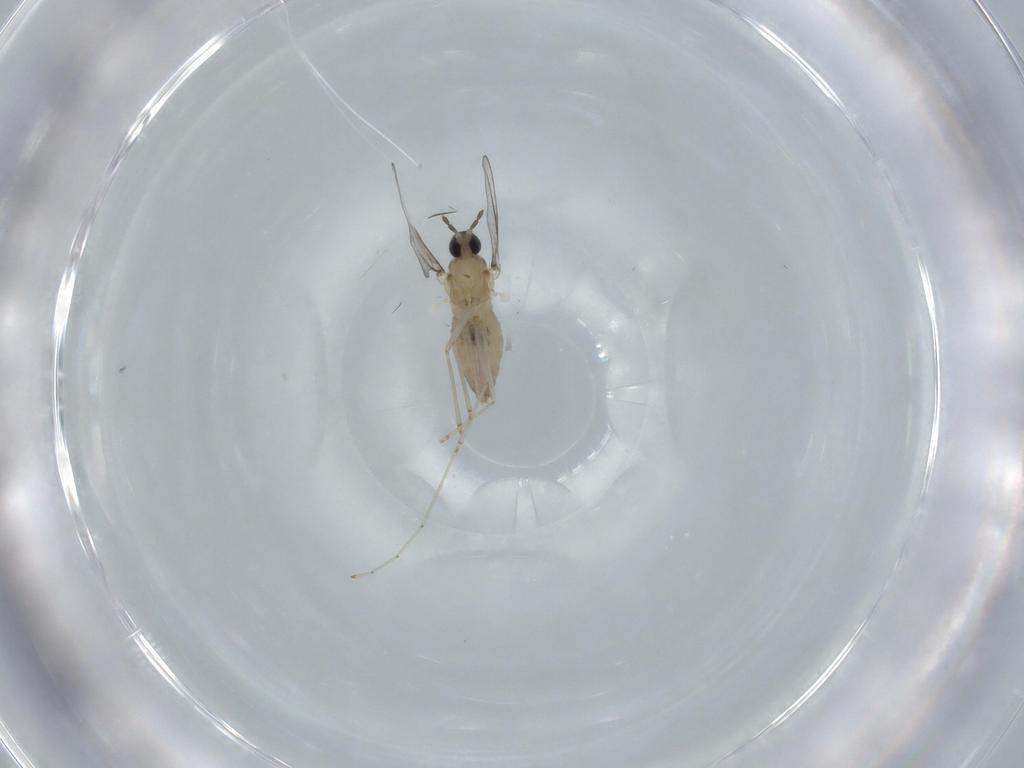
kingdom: Animalia
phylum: Arthropoda
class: Insecta
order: Diptera
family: Cecidomyiidae
